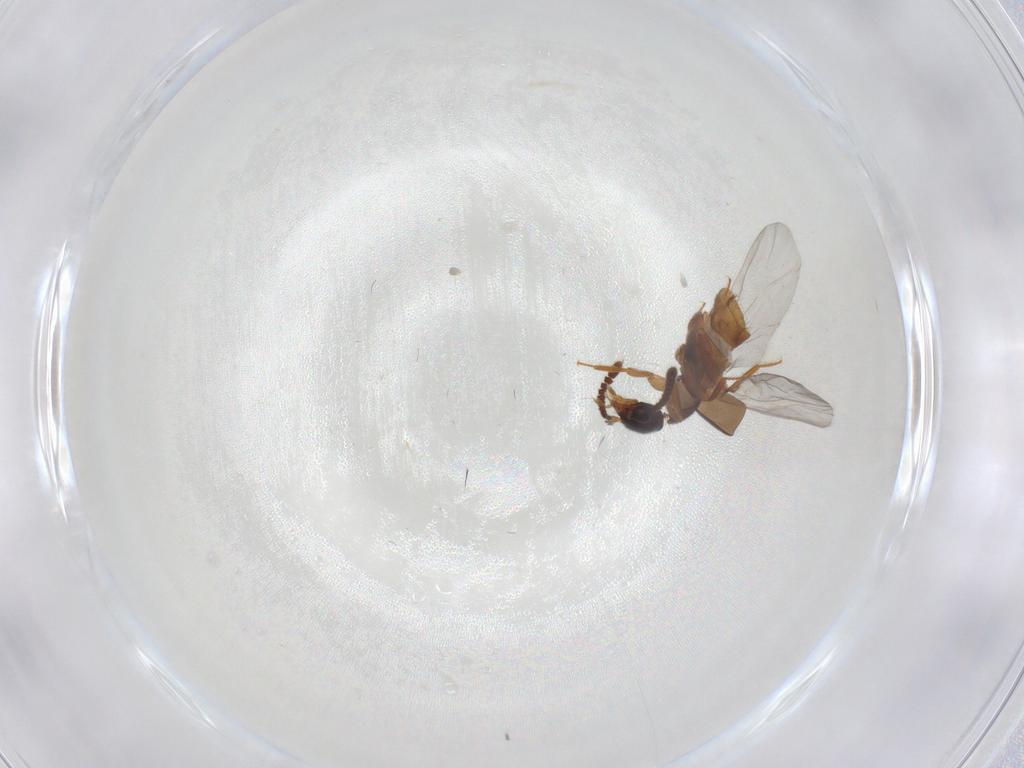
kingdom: Animalia
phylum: Arthropoda
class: Insecta
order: Coleoptera
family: Staphylinidae
